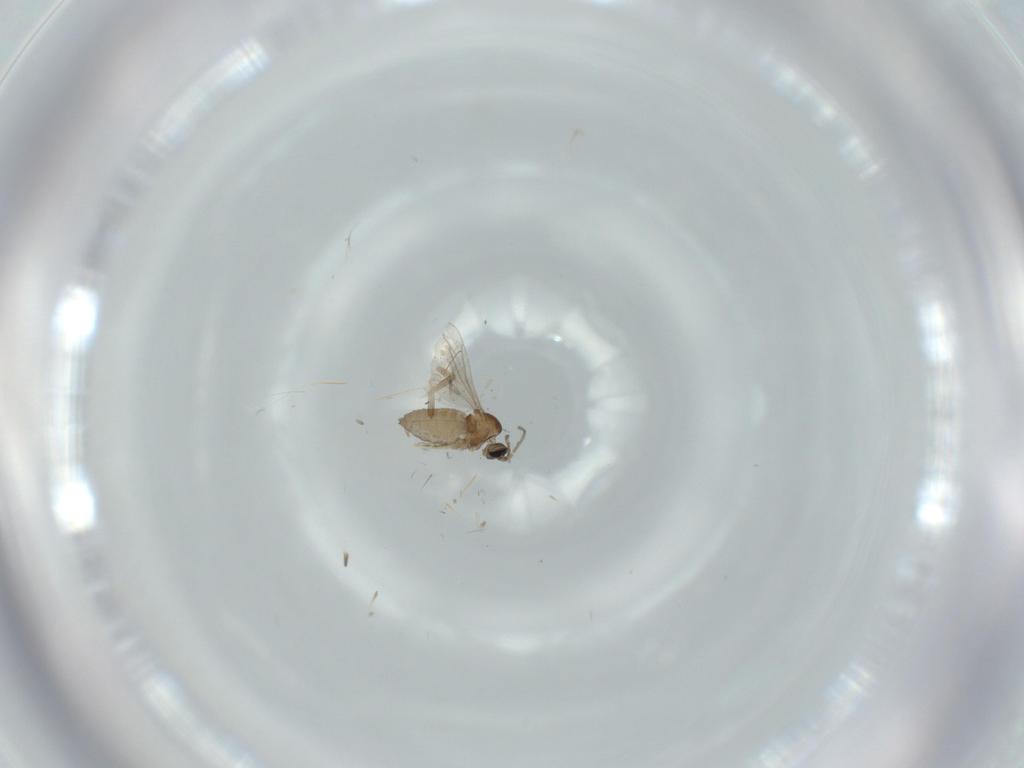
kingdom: Animalia
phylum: Arthropoda
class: Insecta
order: Diptera
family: Cecidomyiidae
